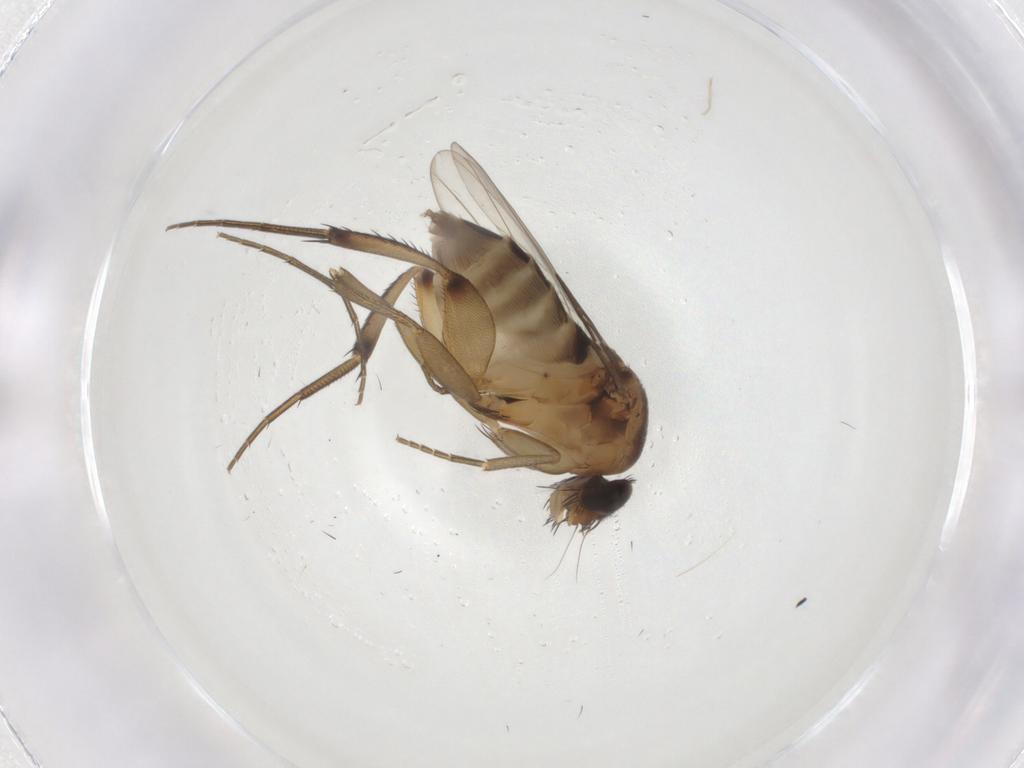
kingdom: Animalia
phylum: Arthropoda
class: Insecta
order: Diptera
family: Phoridae
